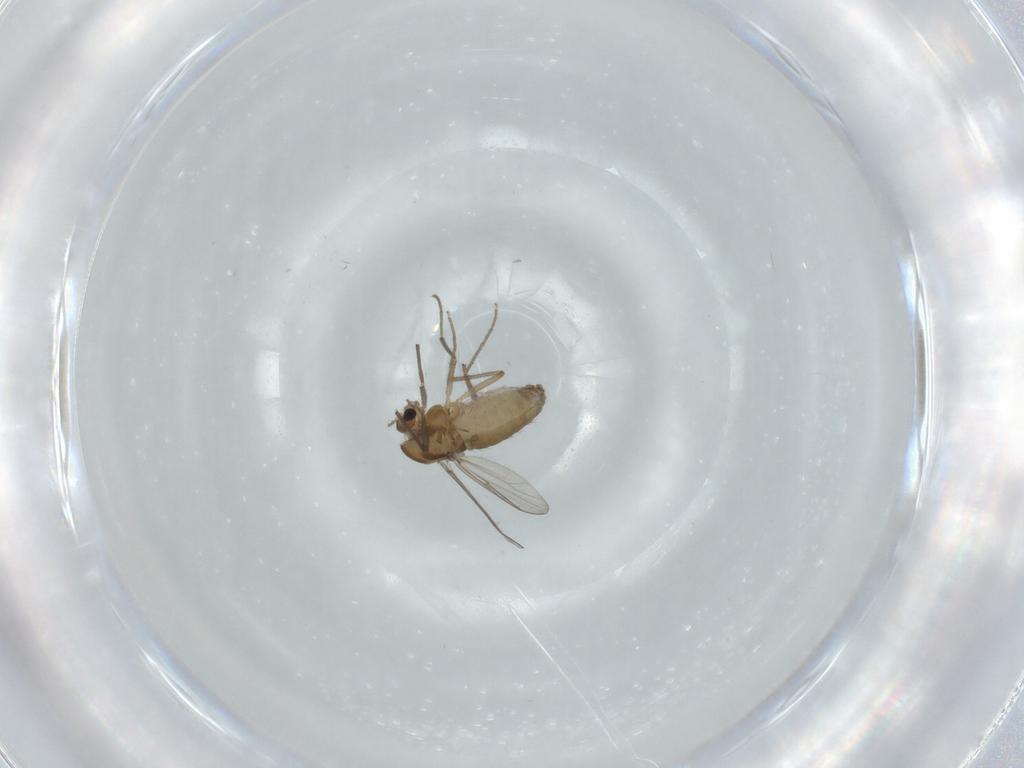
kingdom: Animalia
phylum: Arthropoda
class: Insecta
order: Diptera
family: Chironomidae
